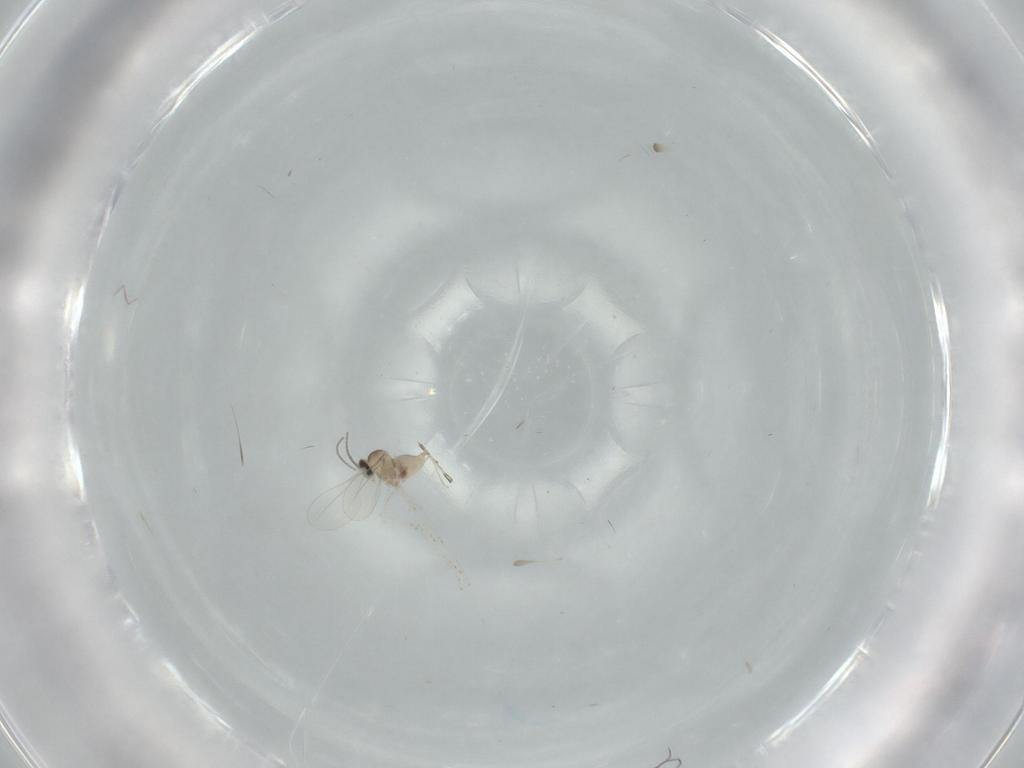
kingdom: Animalia
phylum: Arthropoda
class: Insecta
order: Diptera
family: Cecidomyiidae
